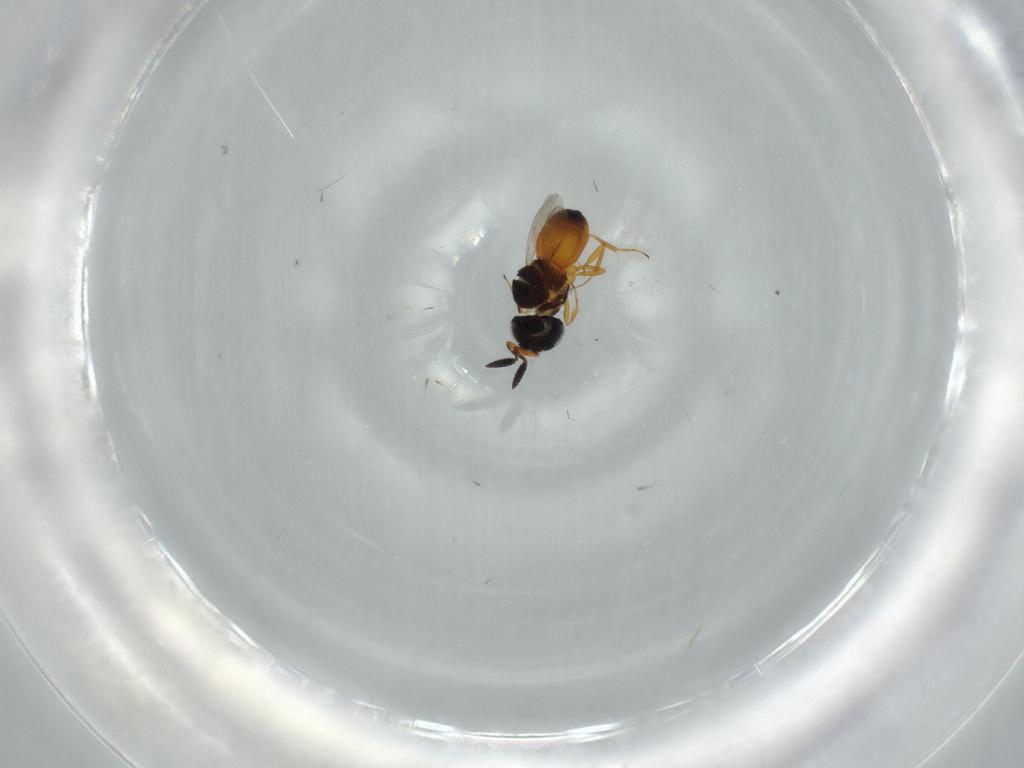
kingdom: Animalia
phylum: Arthropoda
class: Insecta
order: Hymenoptera
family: Scelionidae
